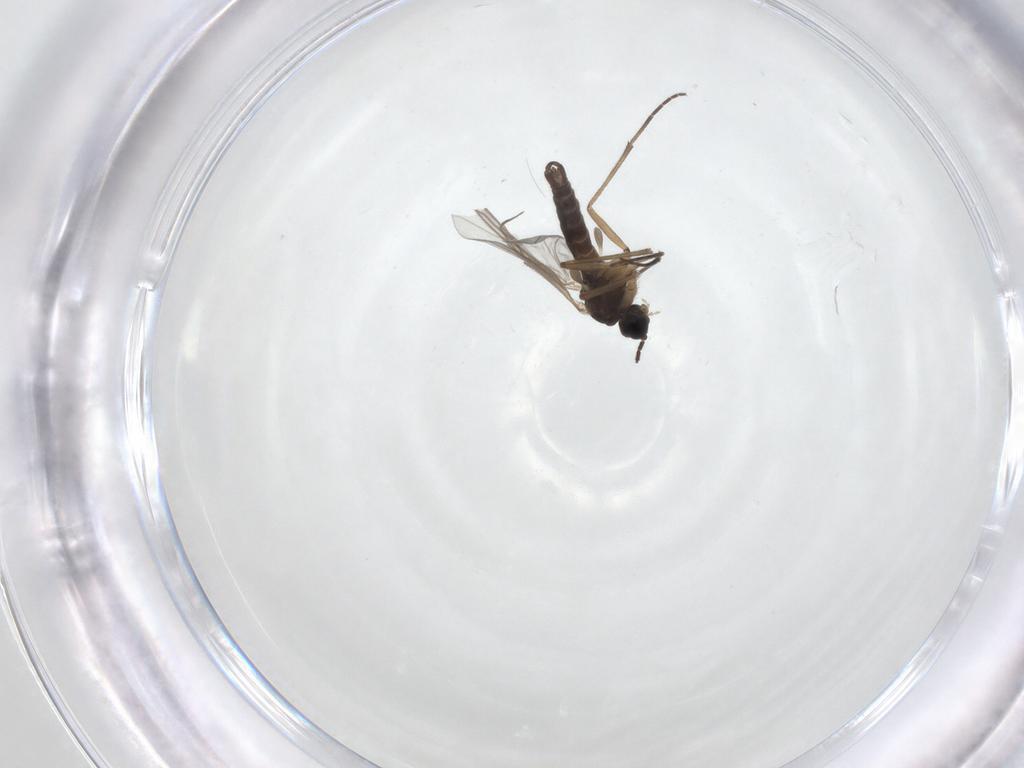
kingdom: Animalia
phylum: Arthropoda
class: Insecta
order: Diptera
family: Sciaridae
